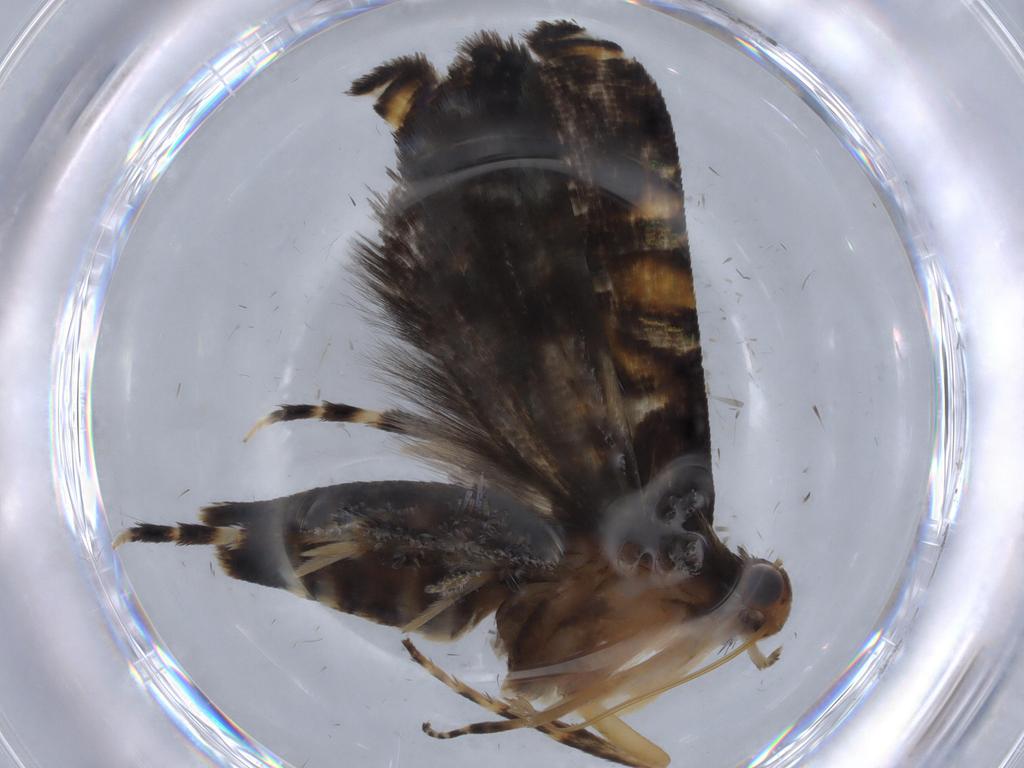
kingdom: Animalia
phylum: Arthropoda
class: Insecta
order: Lepidoptera
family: Glyphipterigidae
